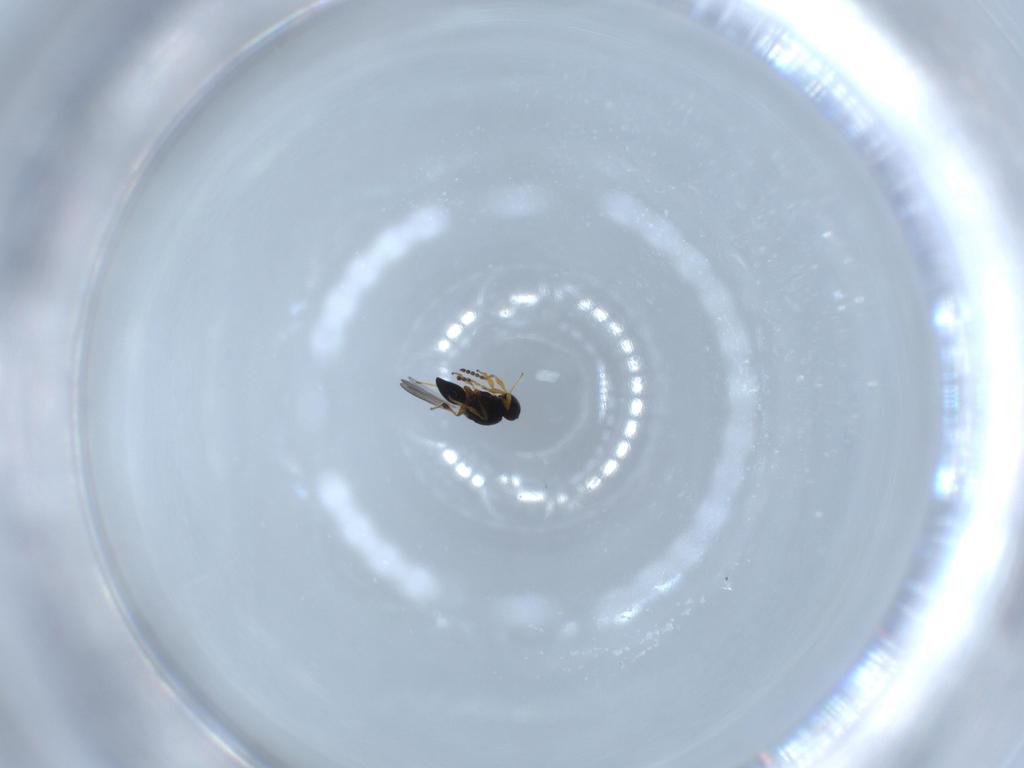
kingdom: Animalia
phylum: Arthropoda
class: Insecta
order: Hymenoptera
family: Platygastridae
